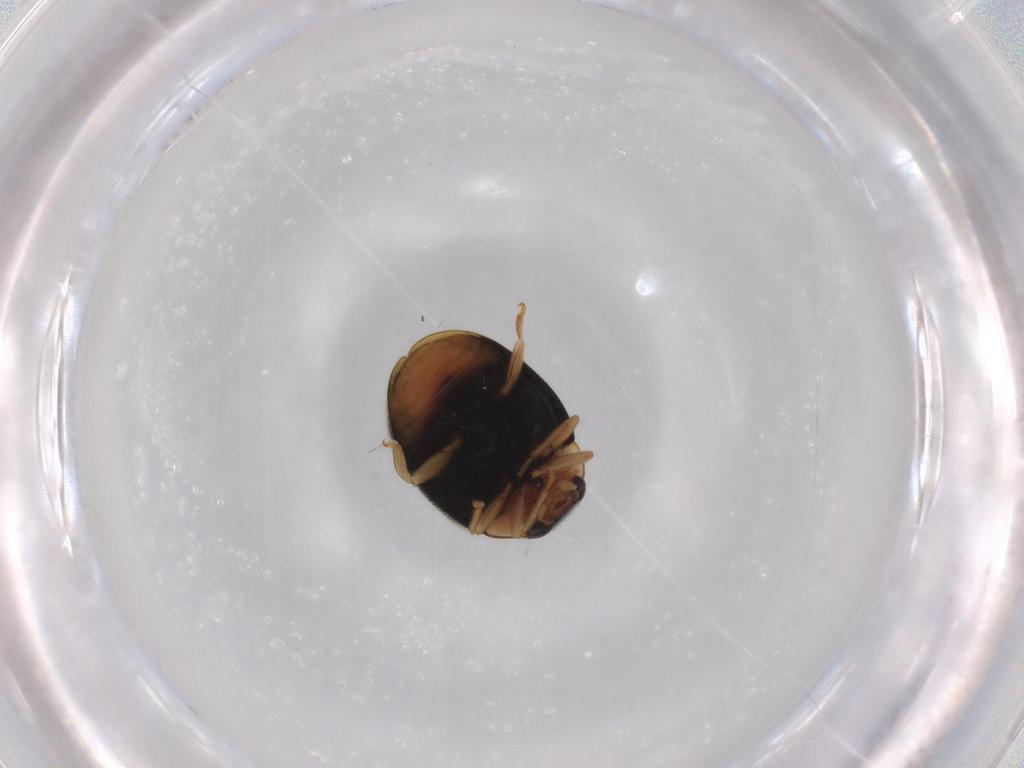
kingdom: Animalia
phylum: Arthropoda
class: Insecta
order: Coleoptera
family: Coccinellidae
